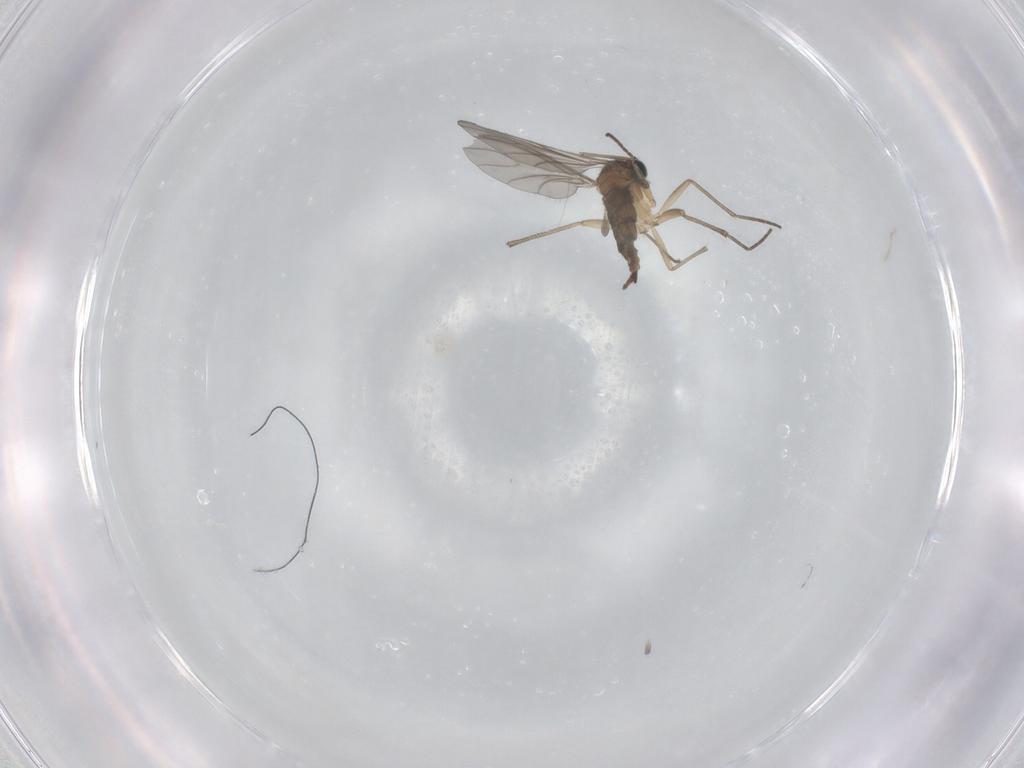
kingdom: Animalia
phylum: Arthropoda
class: Insecta
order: Diptera
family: Sciaridae
